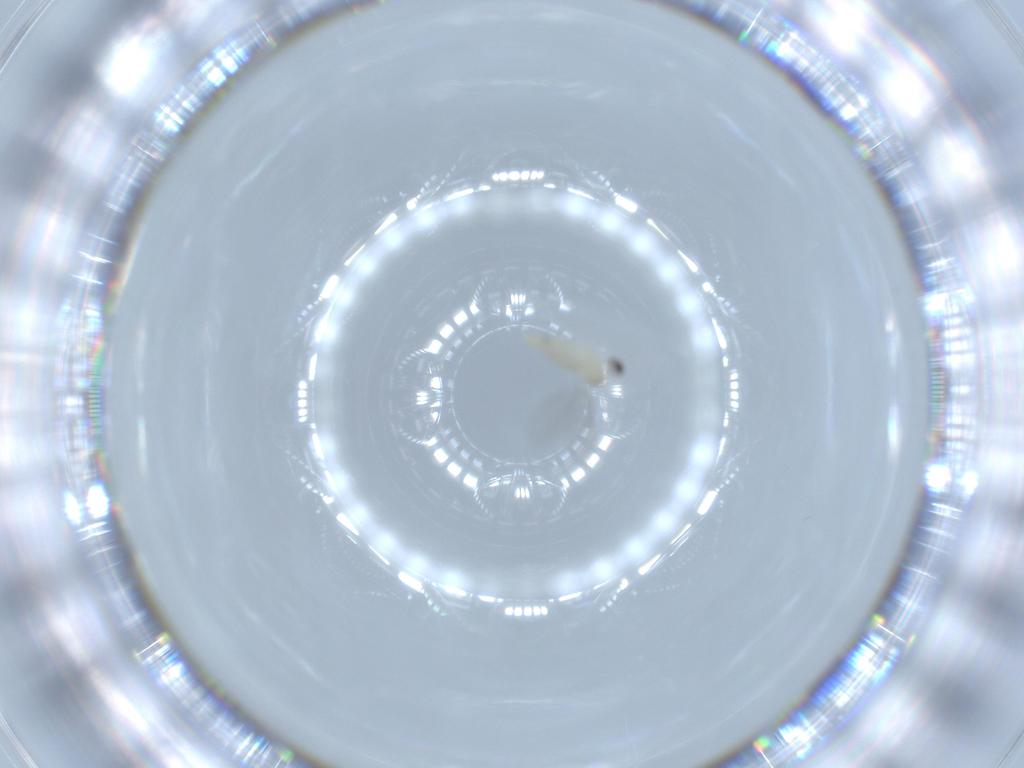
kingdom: Animalia
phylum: Arthropoda
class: Insecta
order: Diptera
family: Cecidomyiidae
